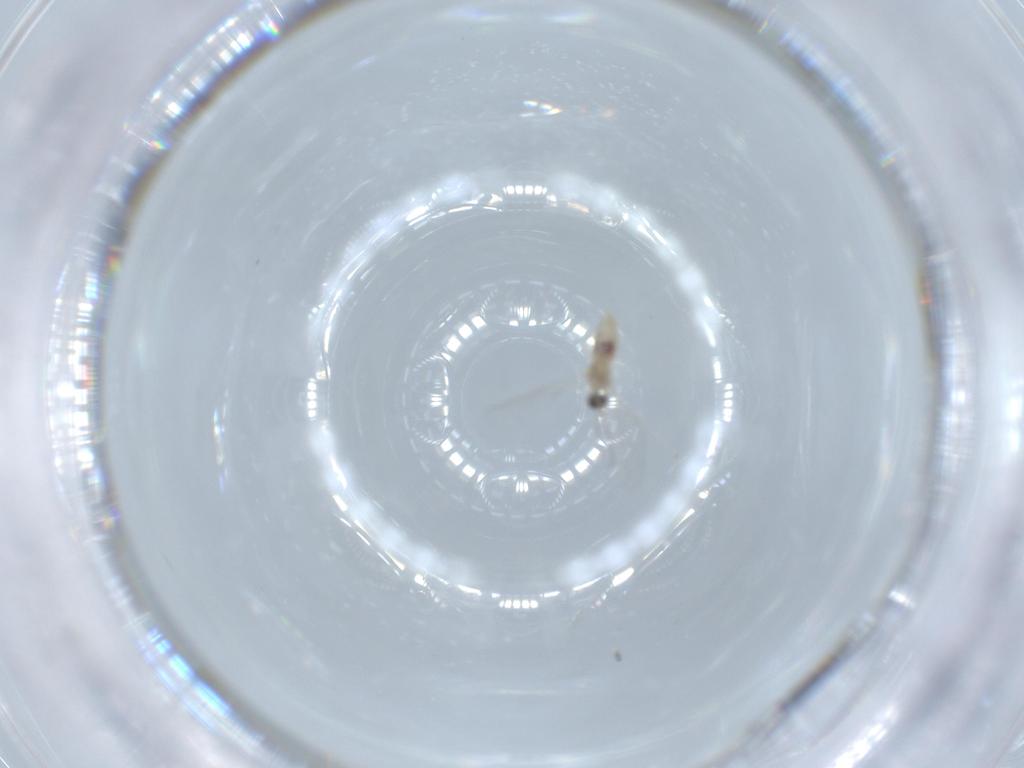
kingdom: Animalia
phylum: Arthropoda
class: Insecta
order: Diptera
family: Cecidomyiidae
